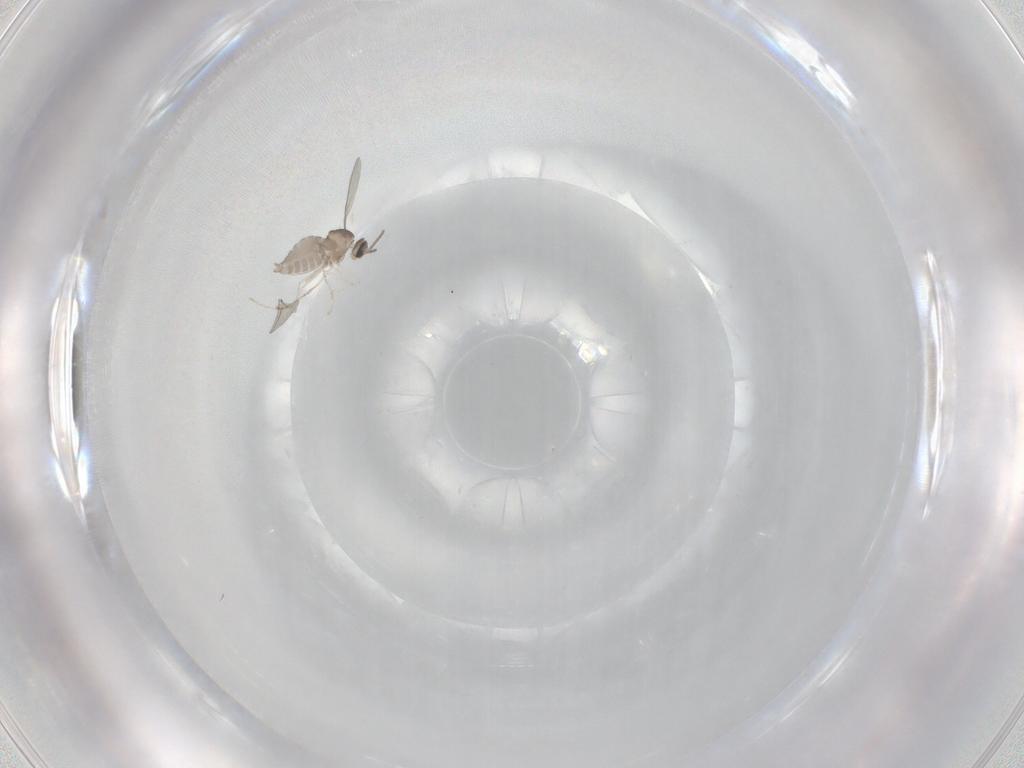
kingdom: Animalia
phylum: Arthropoda
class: Insecta
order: Diptera
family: Cecidomyiidae
